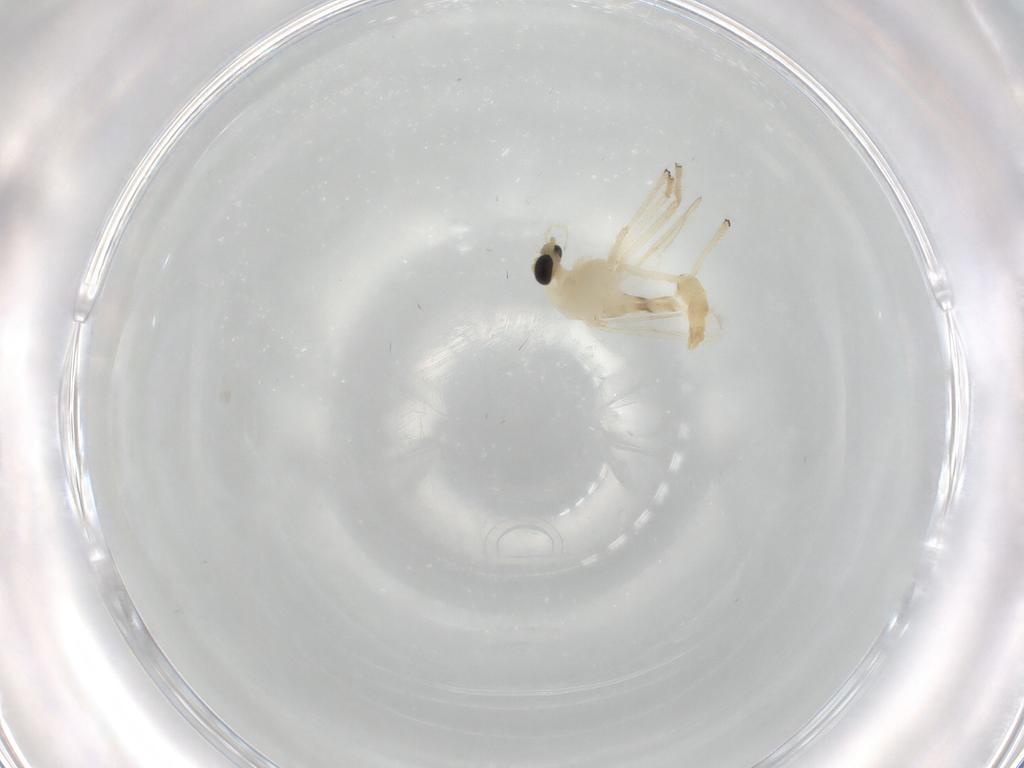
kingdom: Animalia
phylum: Arthropoda
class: Insecta
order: Diptera
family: Chironomidae
